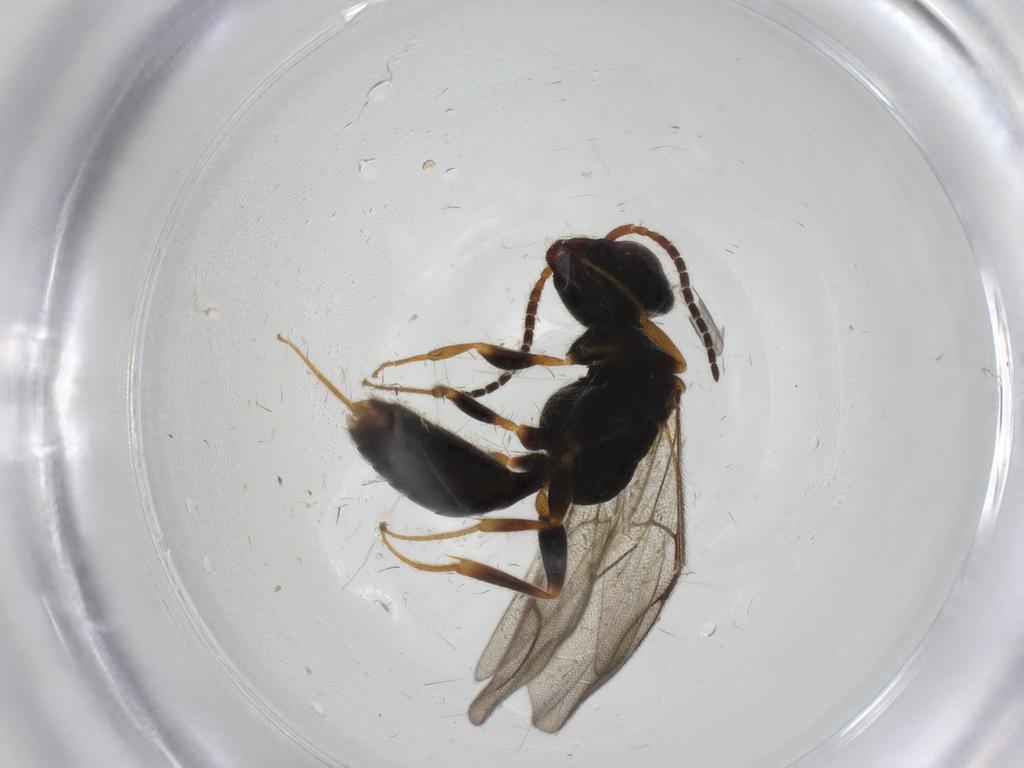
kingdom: Animalia
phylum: Arthropoda
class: Insecta
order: Hymenoptera
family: Bethylidae
